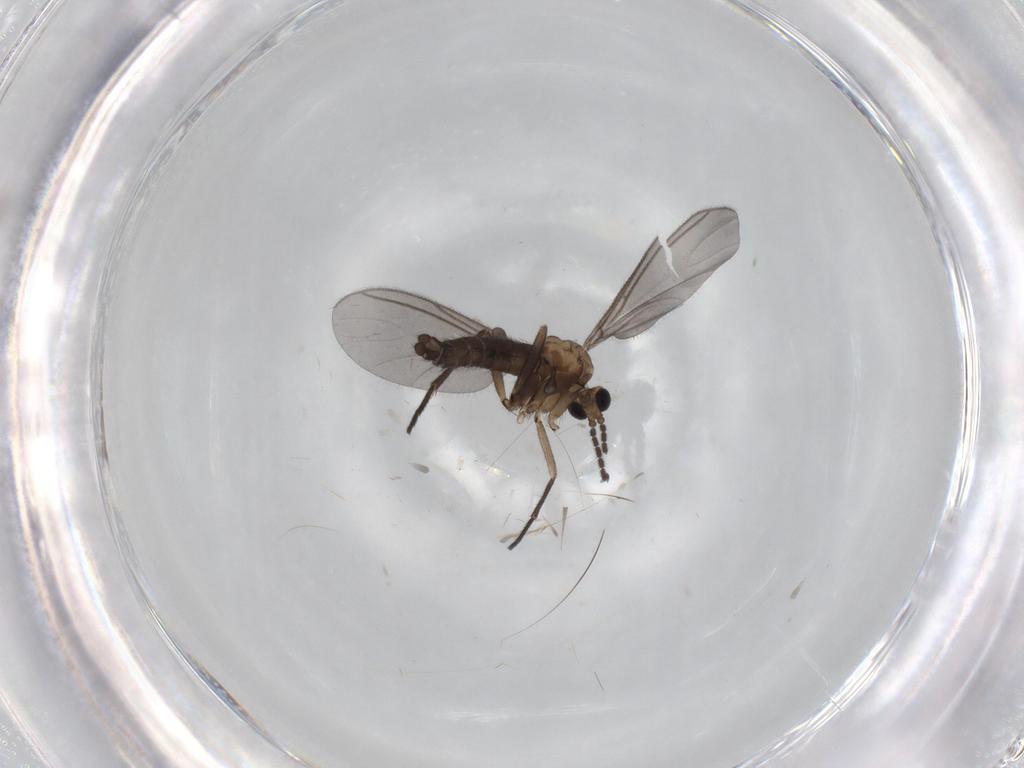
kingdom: Animalia
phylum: Arthropoda
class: Insecta
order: Diptera
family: Sciaridae
